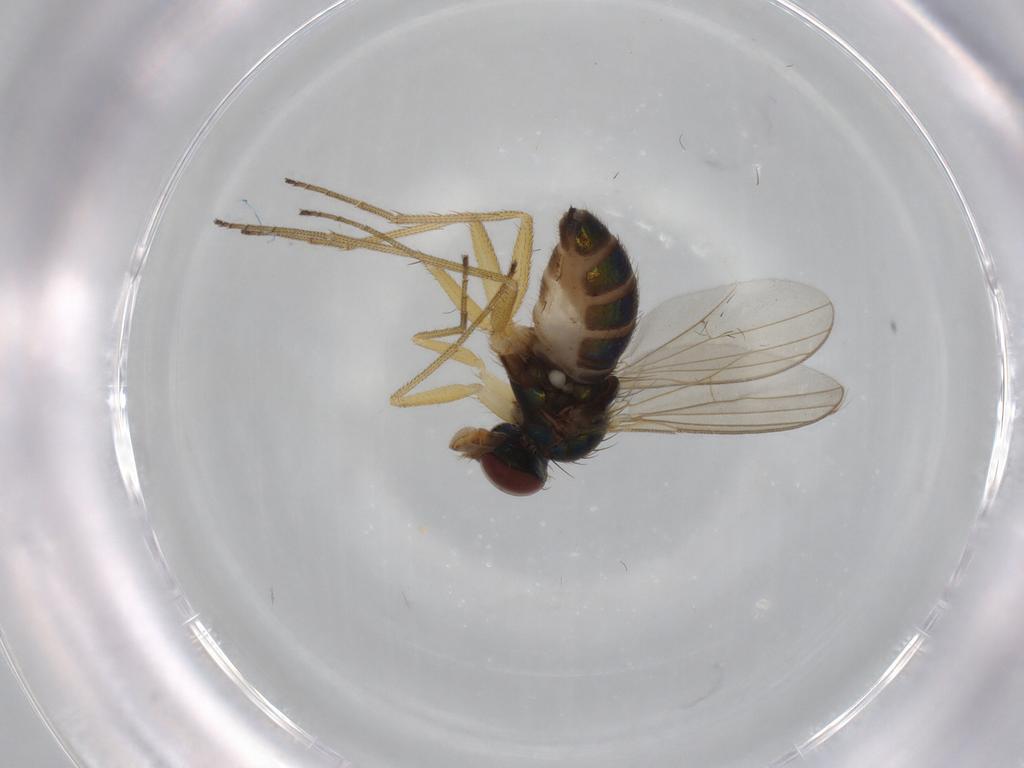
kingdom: Animalia
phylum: Arthropoda
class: Insecta
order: Diptera
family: Dolichopodidae
